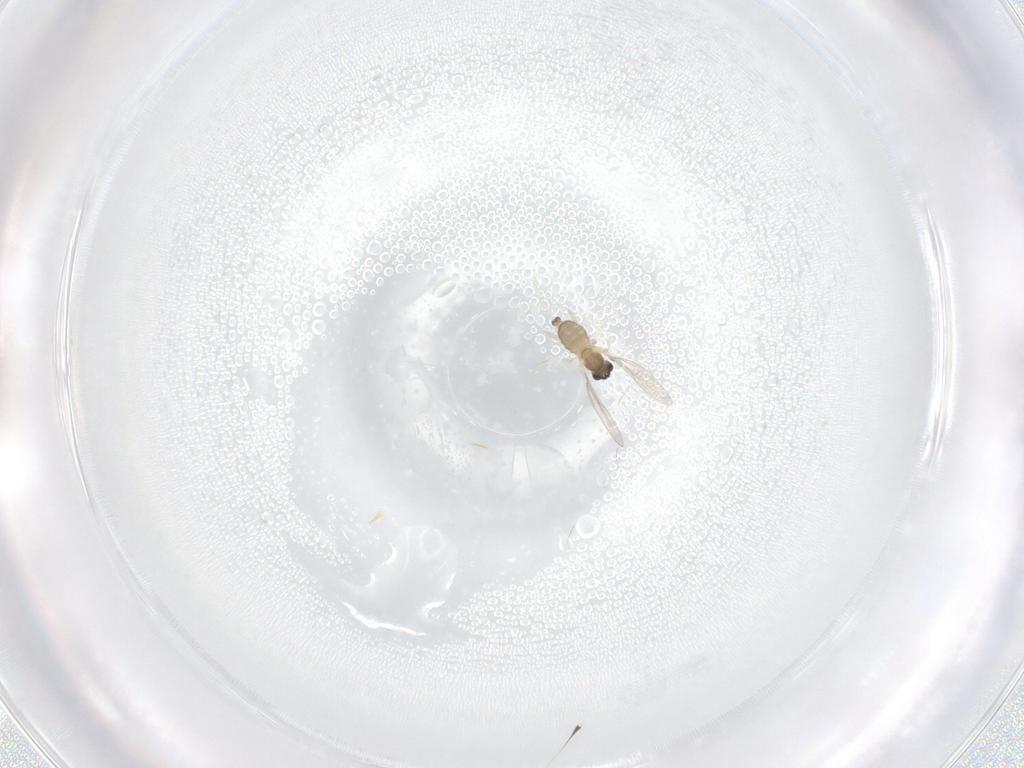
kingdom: Animalia
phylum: Arthropoda
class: Insecta
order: Diptera
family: Cecidomyiidae
